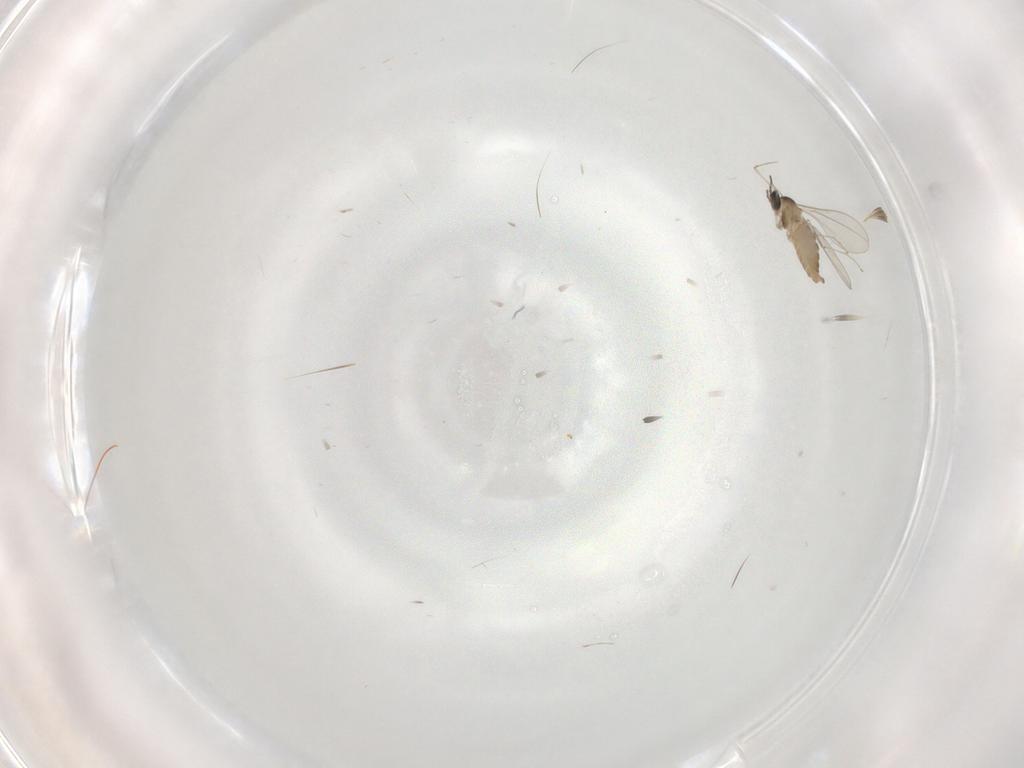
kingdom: Animalia
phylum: Arthropoda
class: Insecta
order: Diptera
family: Cecidomyiidae
